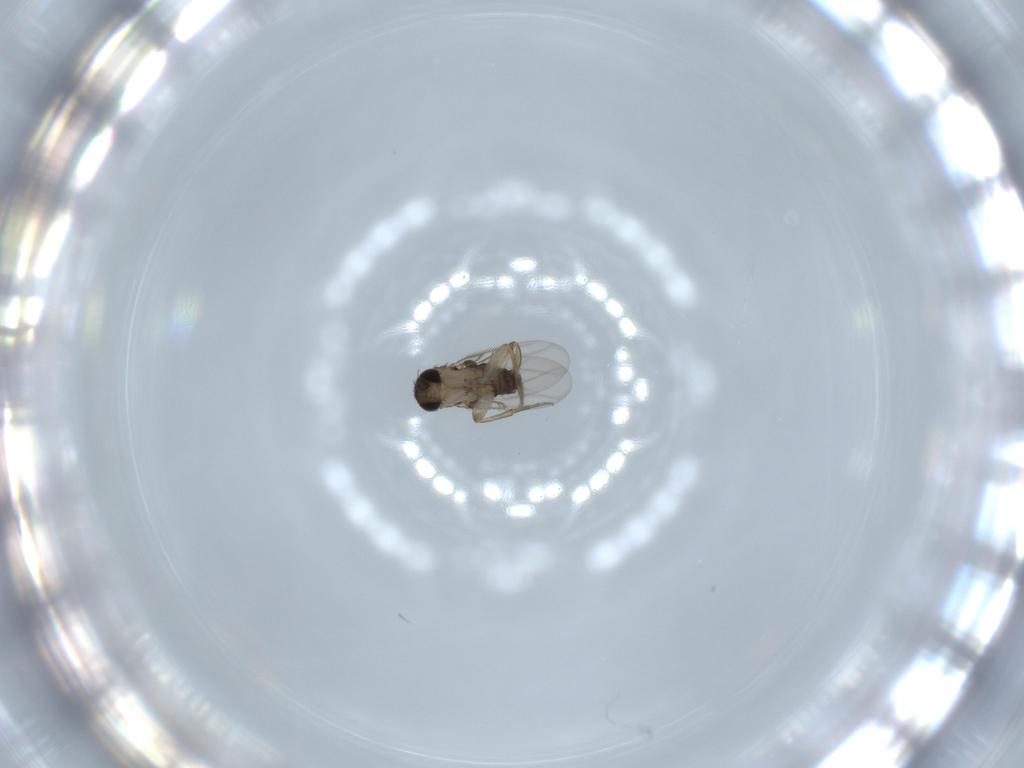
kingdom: Animalia
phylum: Arthropoda
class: Insecta
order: Diptera
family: Phoridae
